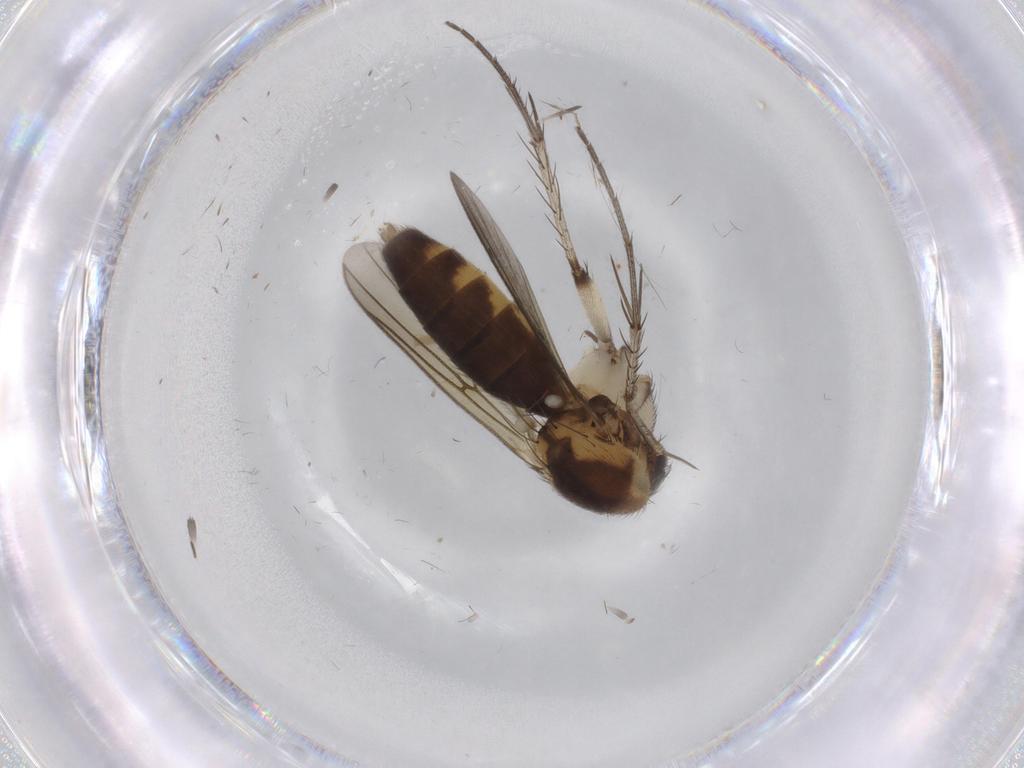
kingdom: Animalia
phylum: Arthropoda
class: Insecta
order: Diptera
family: Mycetophilidae
